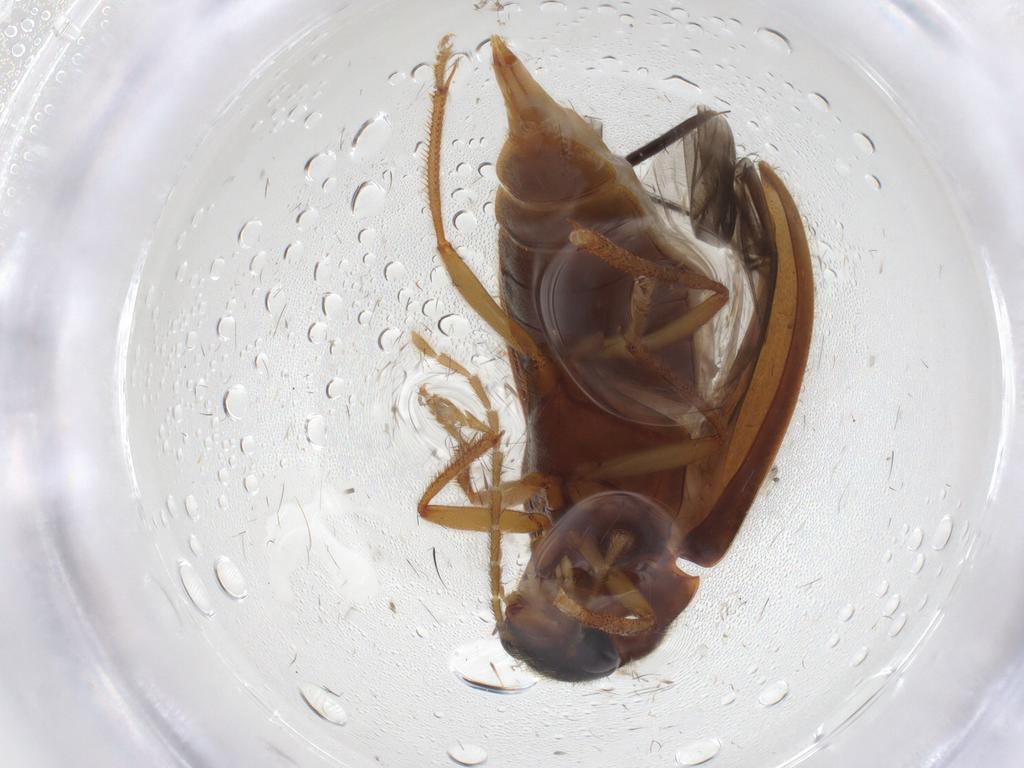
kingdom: Animalia
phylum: Arthropoda
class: Insecta
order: Coleoptera
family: Ptilodactylidae
